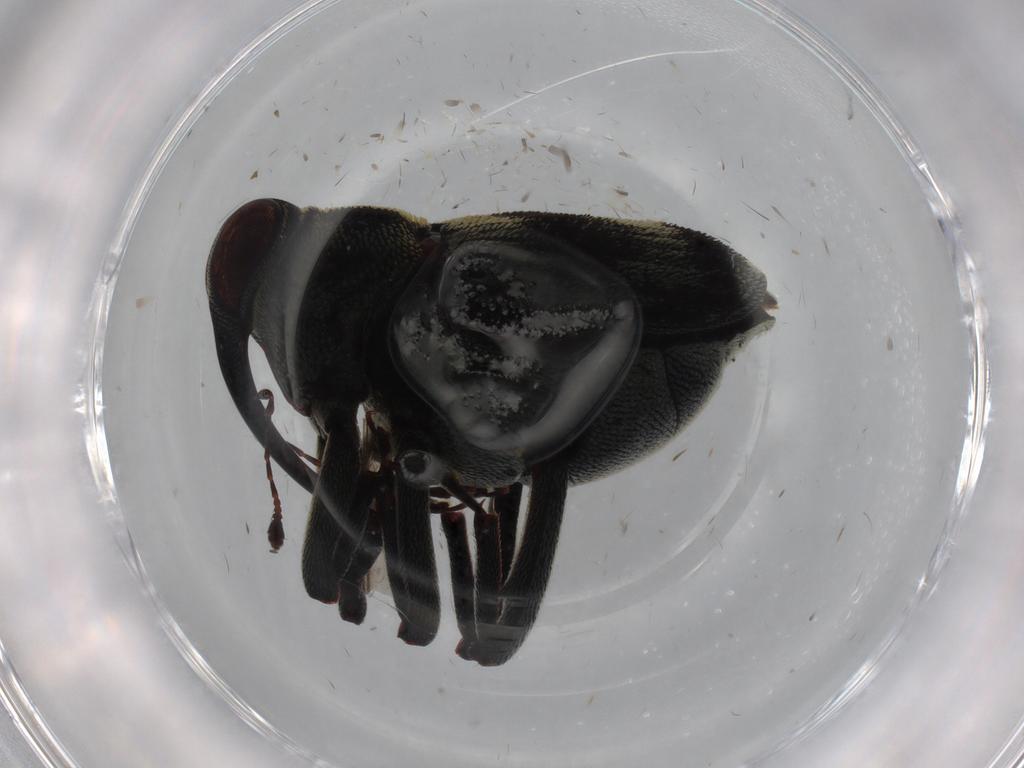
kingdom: Animalia
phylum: Arthropoda
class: Insecta
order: Coleoptera
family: Curculionidae
